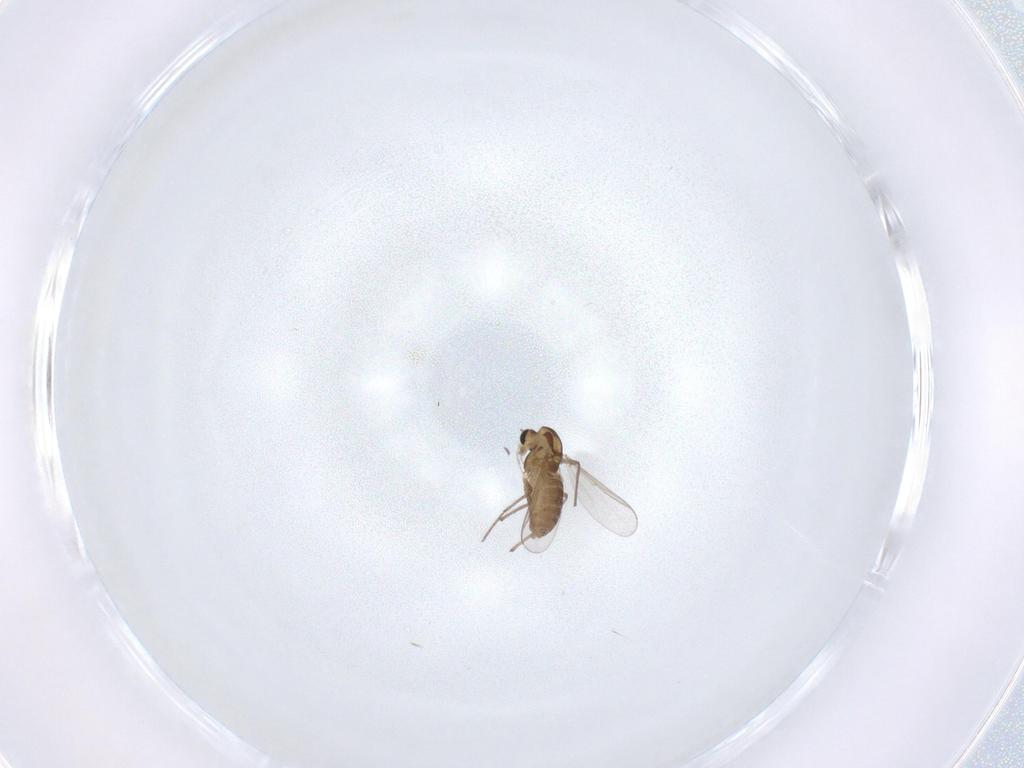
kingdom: Animalia
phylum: Arthropoda
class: Insecta
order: Diptera
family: Chironomidae
